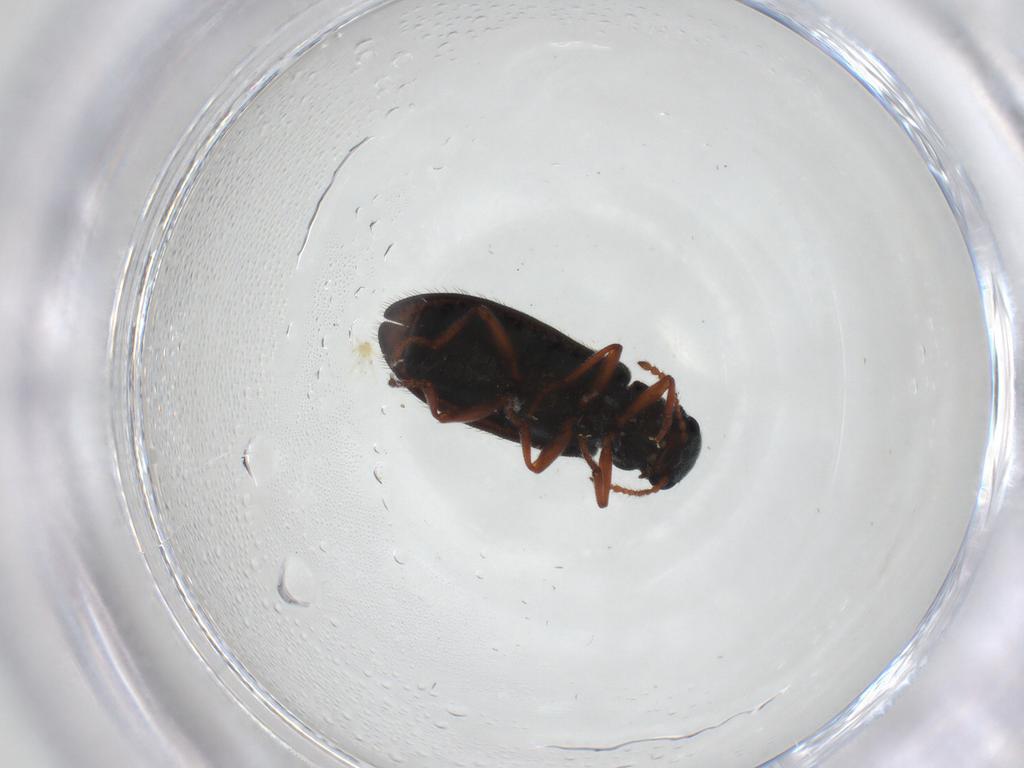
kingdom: Animalia
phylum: Arthropoda
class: Insecta
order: Coleoptera
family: Melyridae
